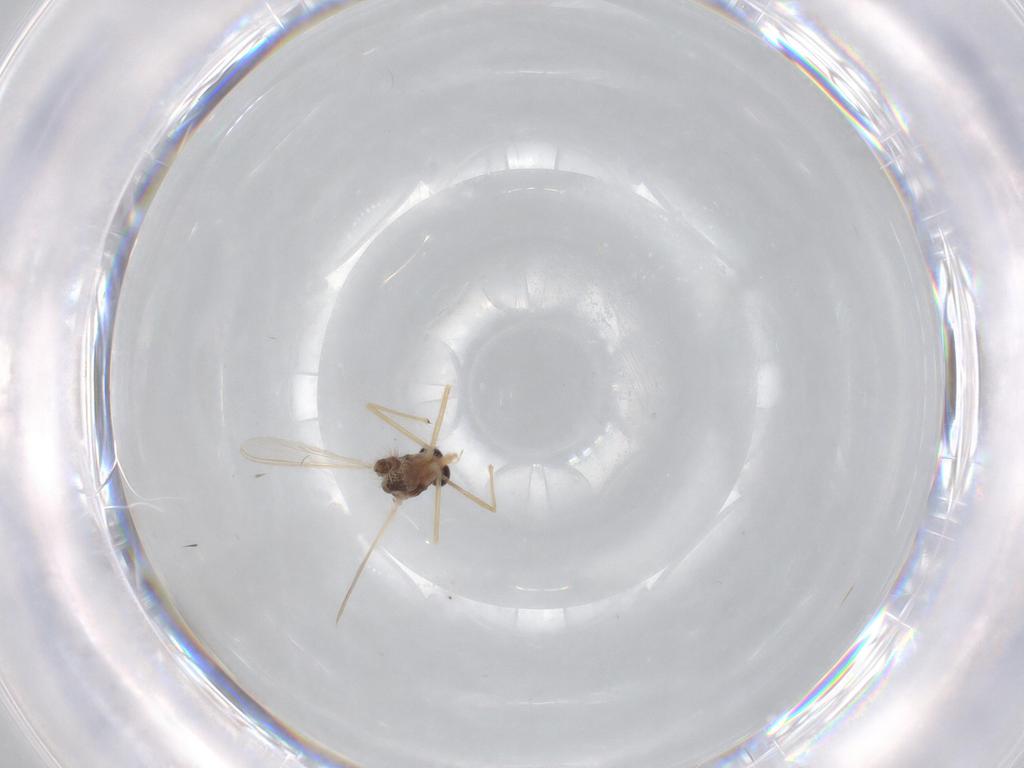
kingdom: Animalia
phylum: Arthropoda
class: Insecta
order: Diptera
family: Chironomidae
